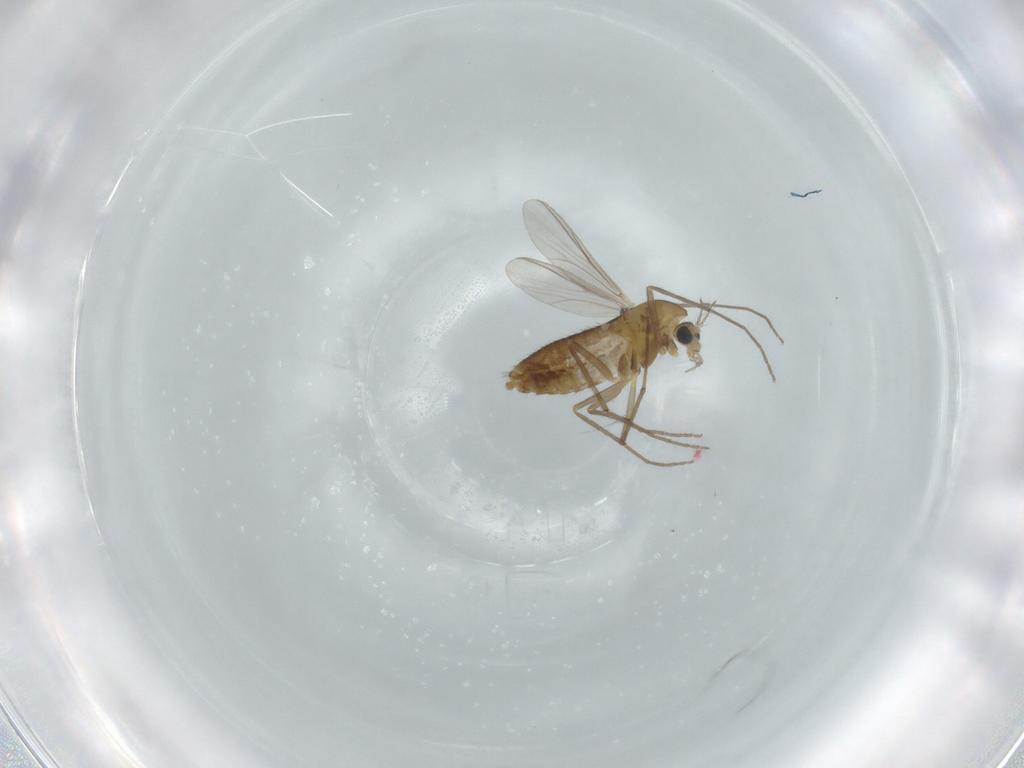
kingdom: Animalia
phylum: Arthropoda
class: Insecta
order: Diptera
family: Chironomidae
